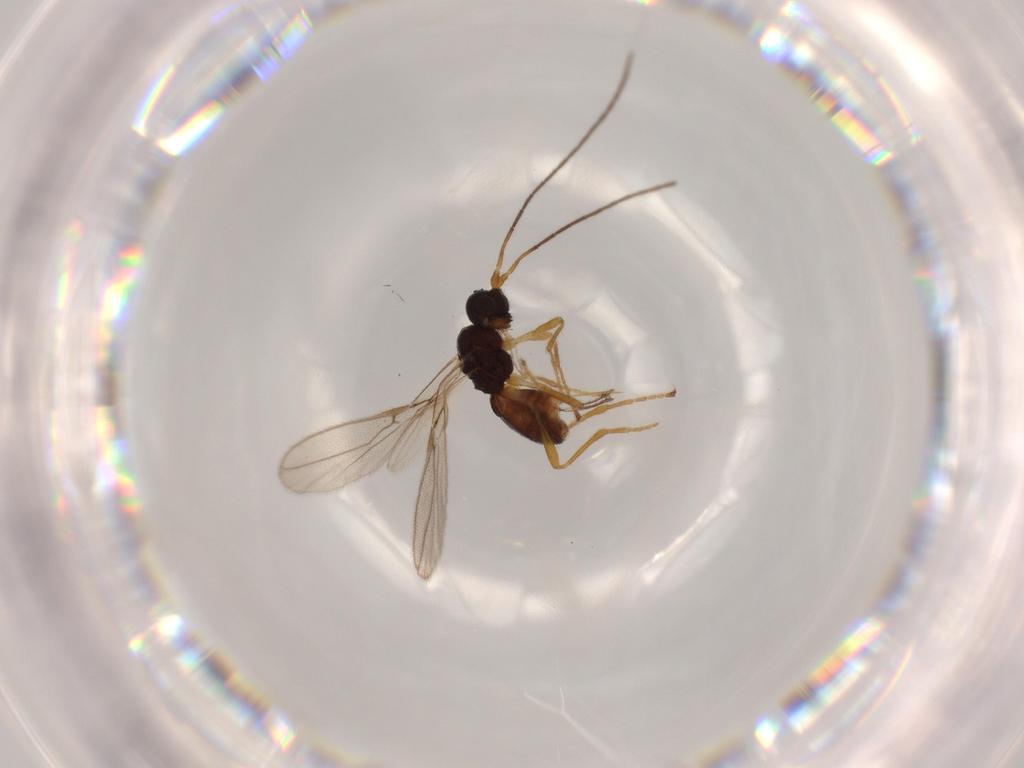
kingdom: Animalia
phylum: Arthropoda
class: Insecta
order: Hymenoptera
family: Braconidae
